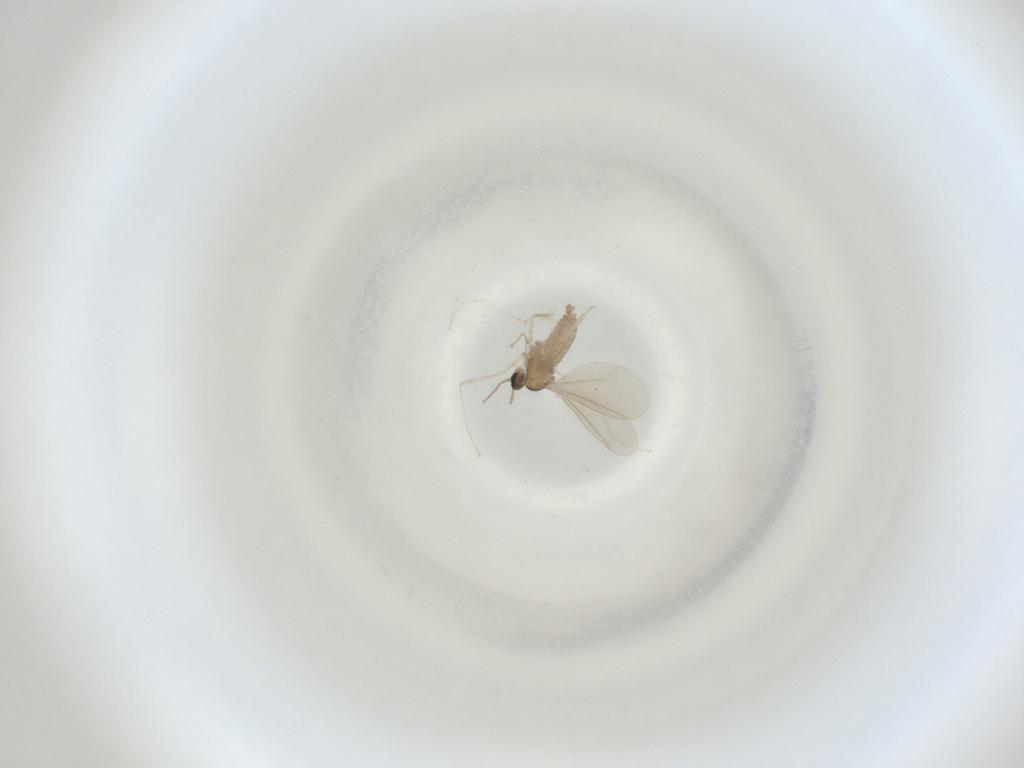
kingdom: Animalia
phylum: Arthropoda
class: Insecta
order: Diptera
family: Cecidomyiidae
